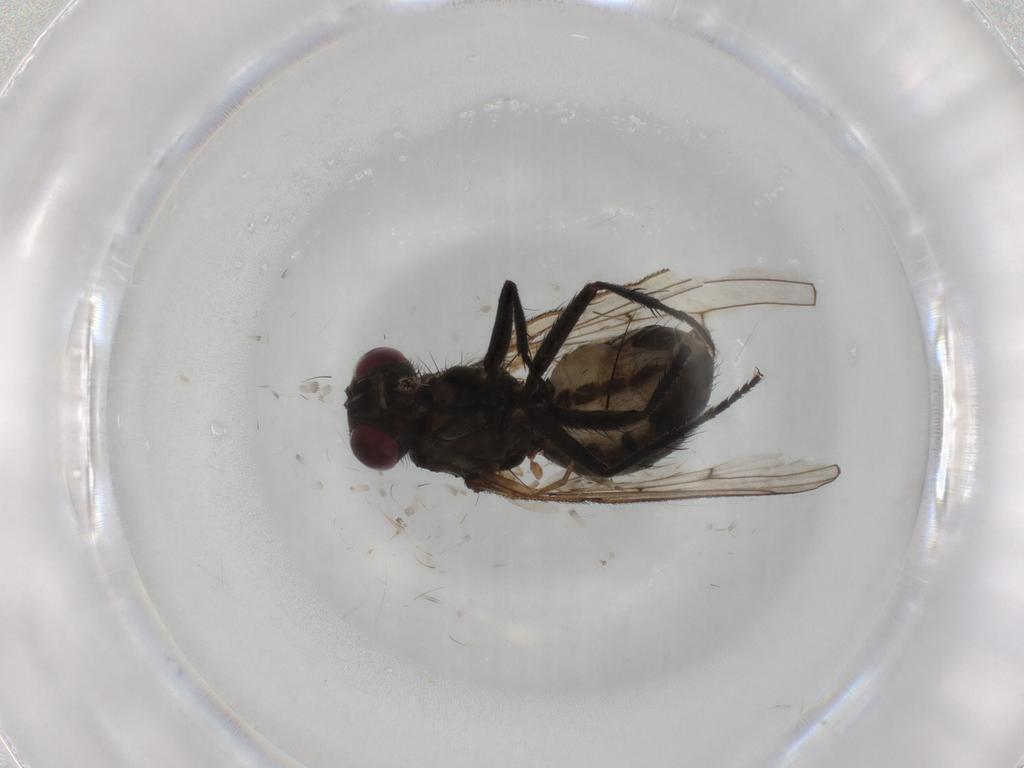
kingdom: Animalia
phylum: Arthropoda
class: Insecta
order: Diptera
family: Muscidae
